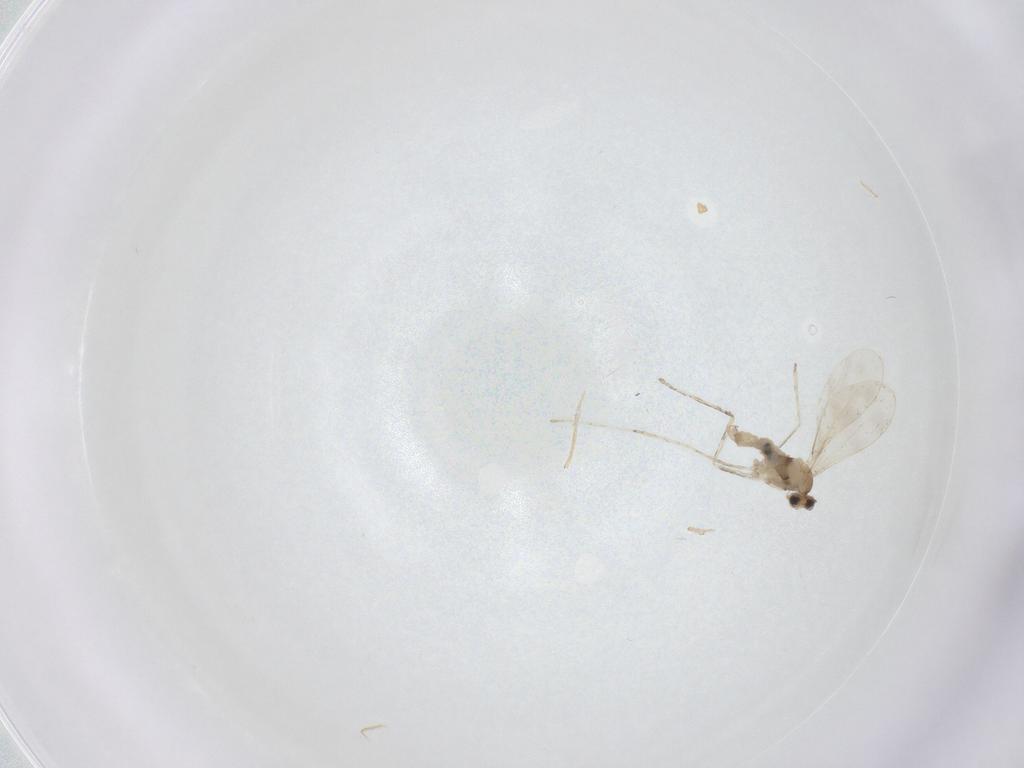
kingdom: Animalia
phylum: Arthropoda
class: Insecta
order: Diptera
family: Cecidomyiidae
